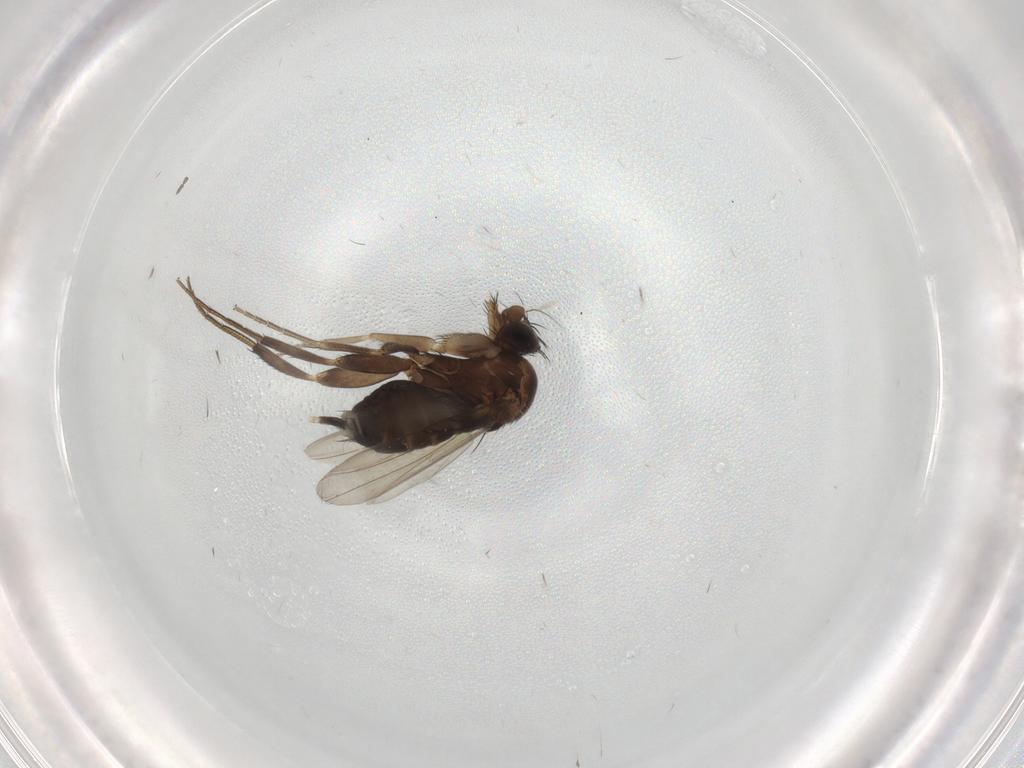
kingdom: Animalia
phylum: Arthropoda
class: Insecta
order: Diptera
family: Phoridae
